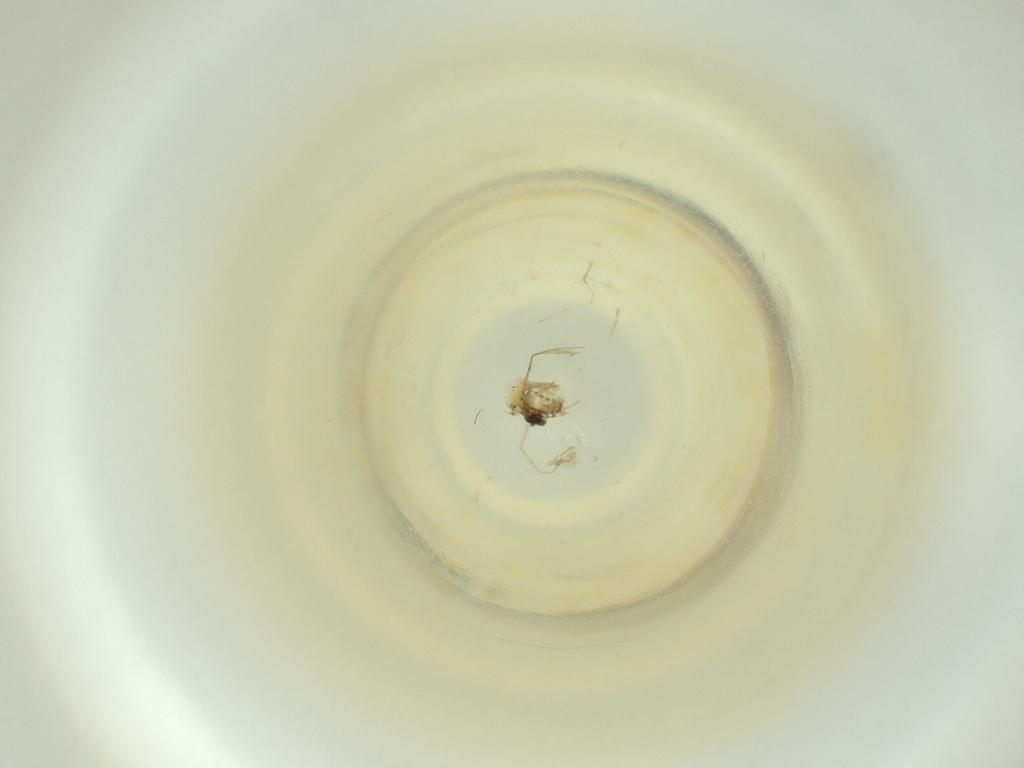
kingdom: Animalia
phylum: Arthropoda
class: Insecta
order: Diptera
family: Cecidomyiidae
